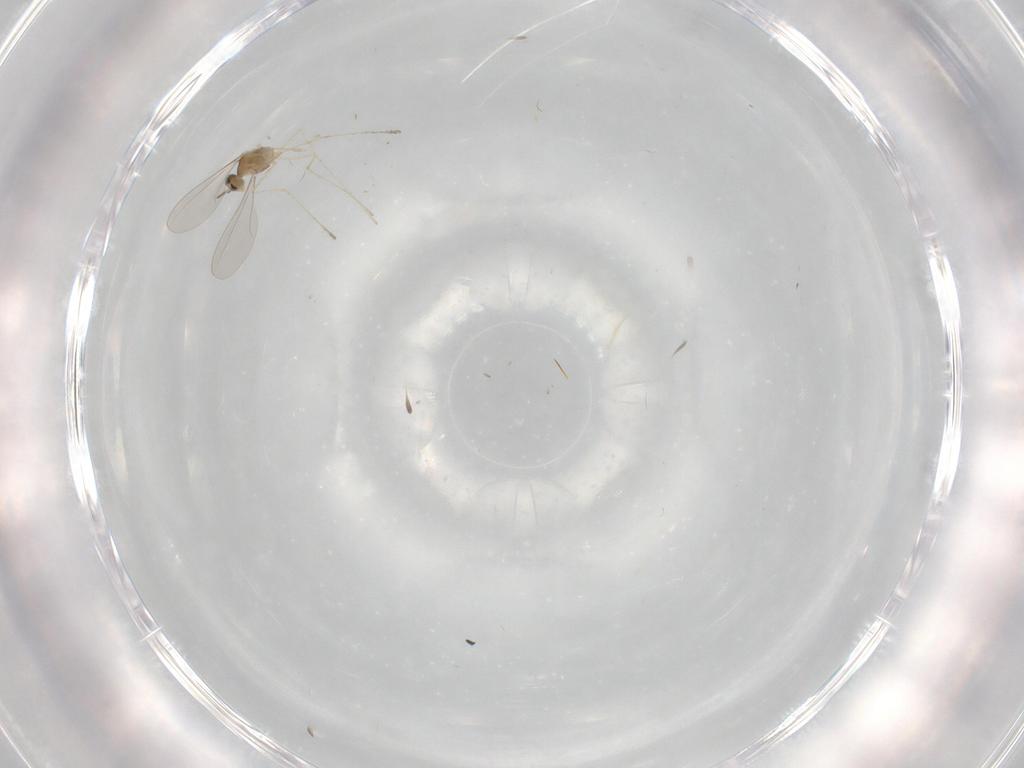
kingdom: Animalia
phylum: Arthropoda
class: Insecta
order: Diptera
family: Cecidomyiidae
